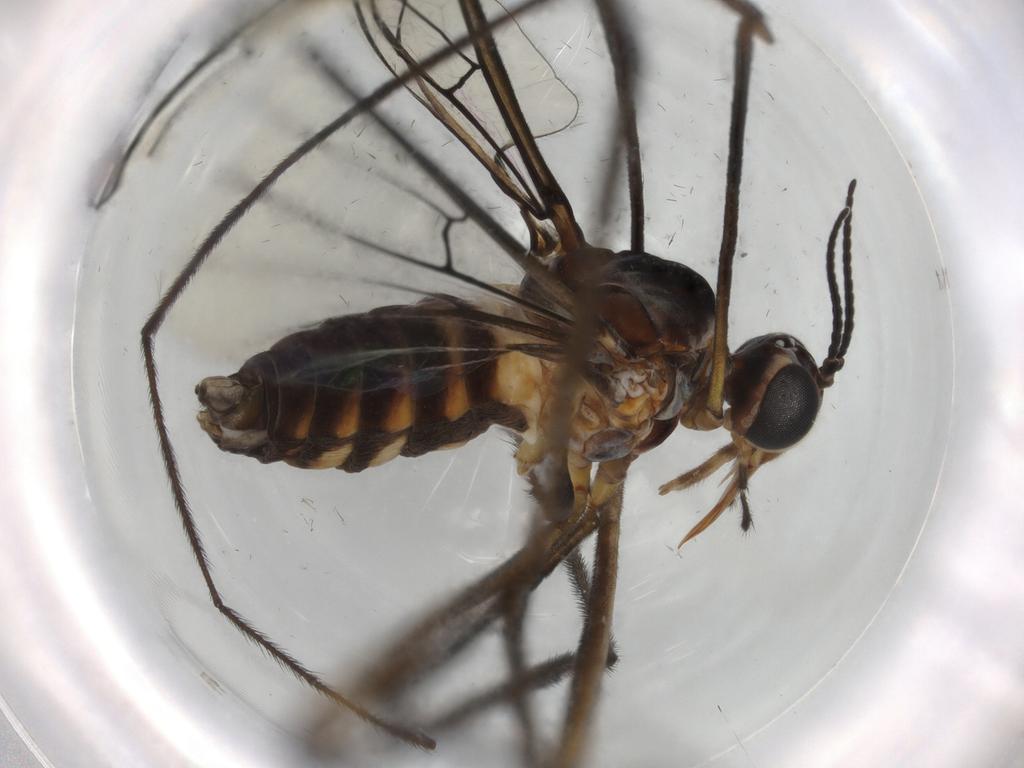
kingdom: Animalia
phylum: Arthropoda
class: Insecta
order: Diptera
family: Blephariceridae
